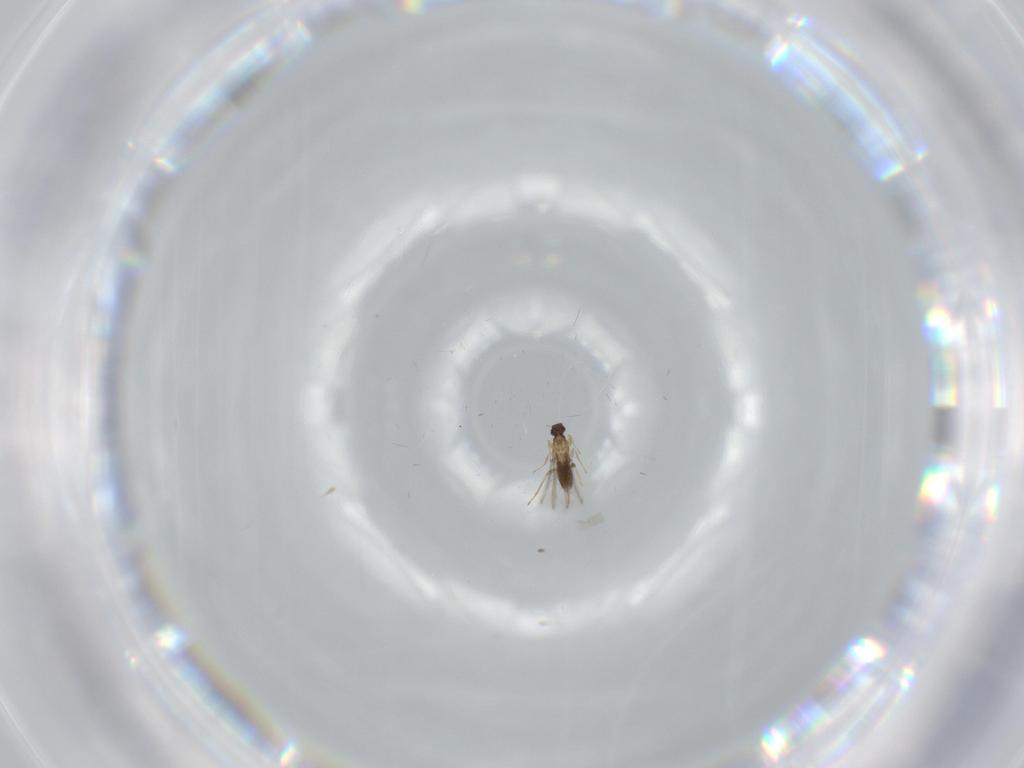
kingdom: Animalia
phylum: Arthropoda
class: Insecta
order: Hymenoptera
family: Mymaridae
